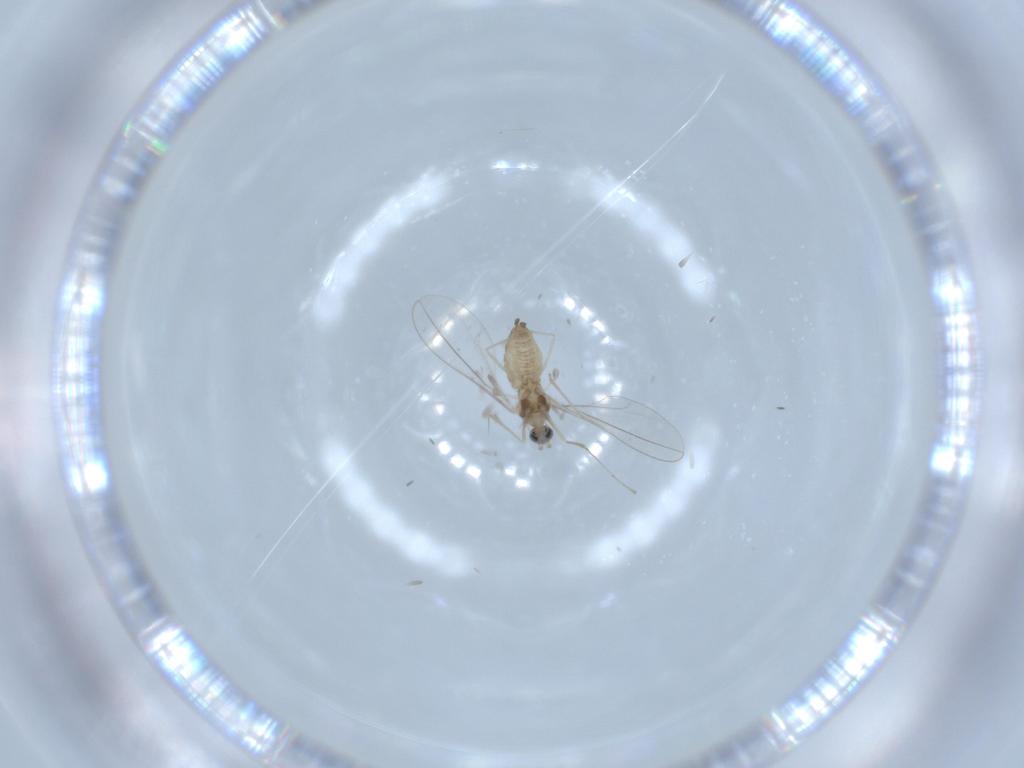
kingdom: Animalia
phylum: Arthropoda
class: Insecta
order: Diptera
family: Cecidomyiidae
